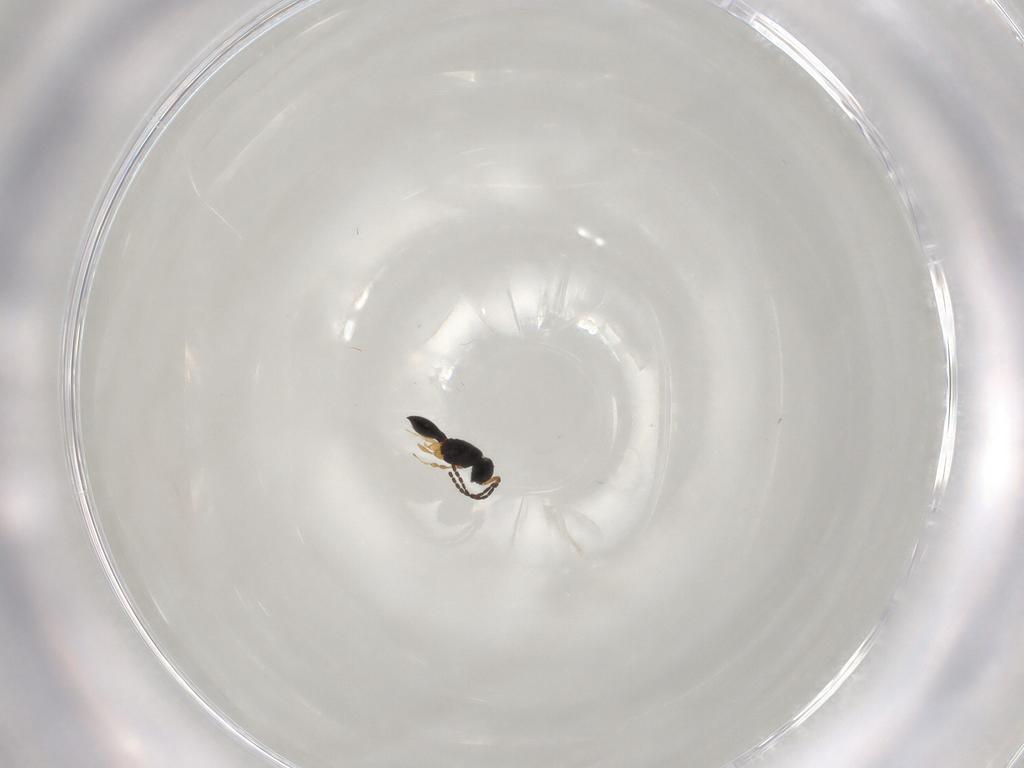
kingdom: Animalia
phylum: Arthropoda
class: Insecta
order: Hymenoptera
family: Scelionidae
